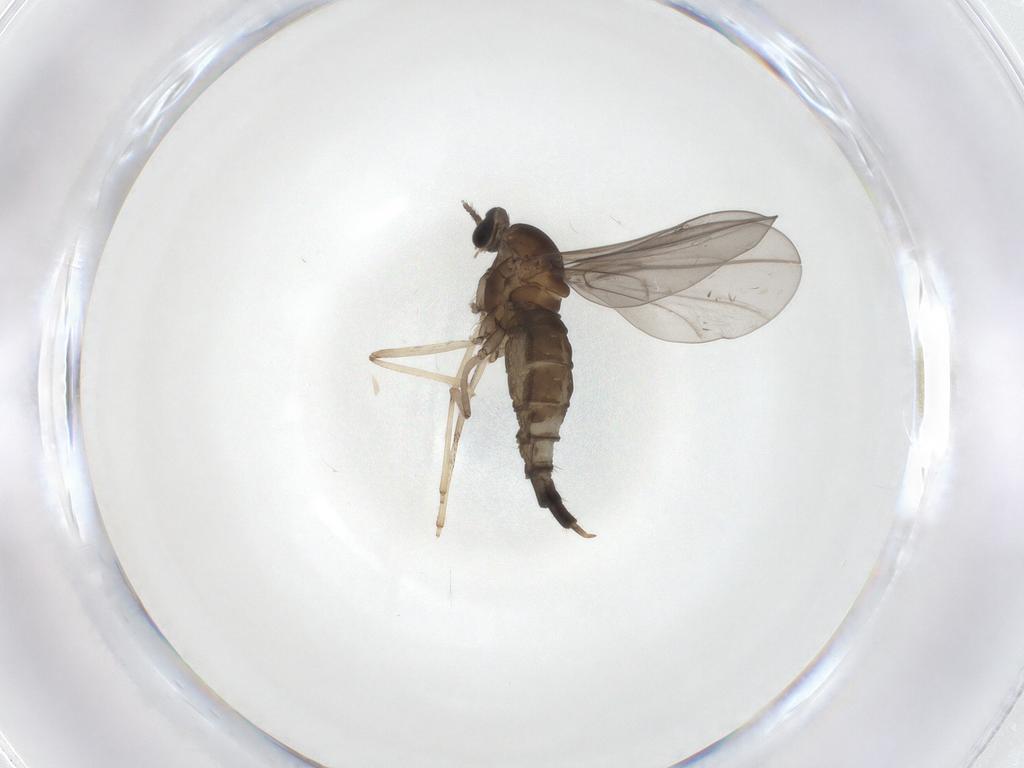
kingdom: Animalia
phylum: Arthropoda
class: Insecta
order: Diptera
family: Cecidomyiidae
